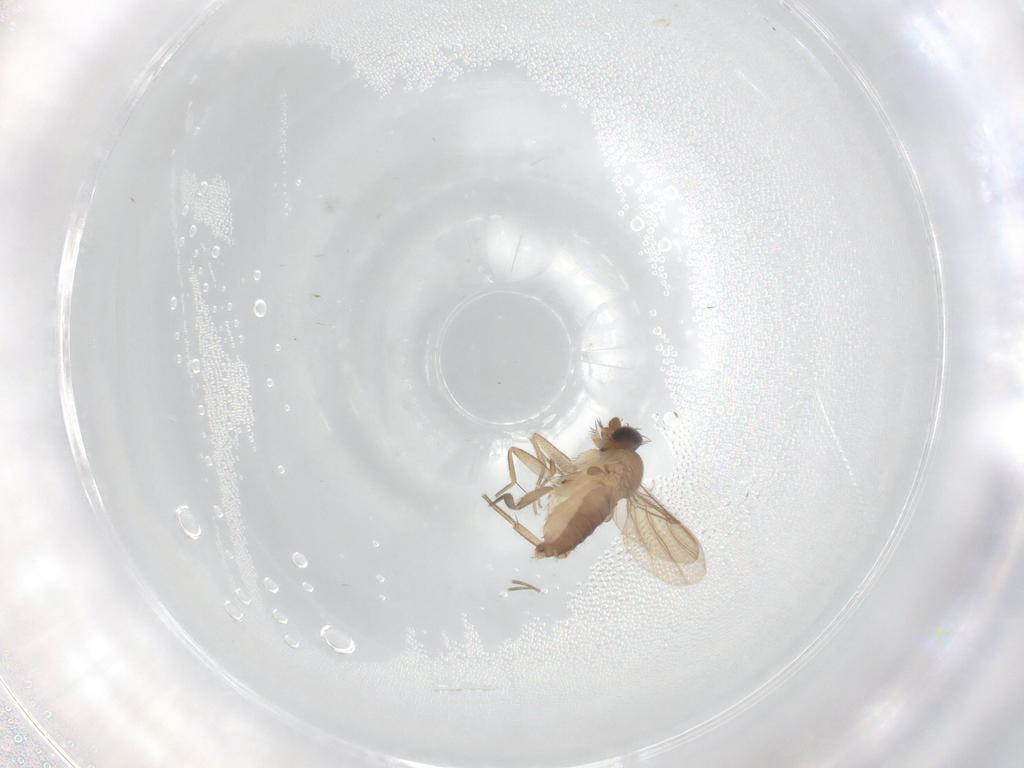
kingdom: Animalia
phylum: Arthropoda
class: Insecta
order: Diptera
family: Phoridae
